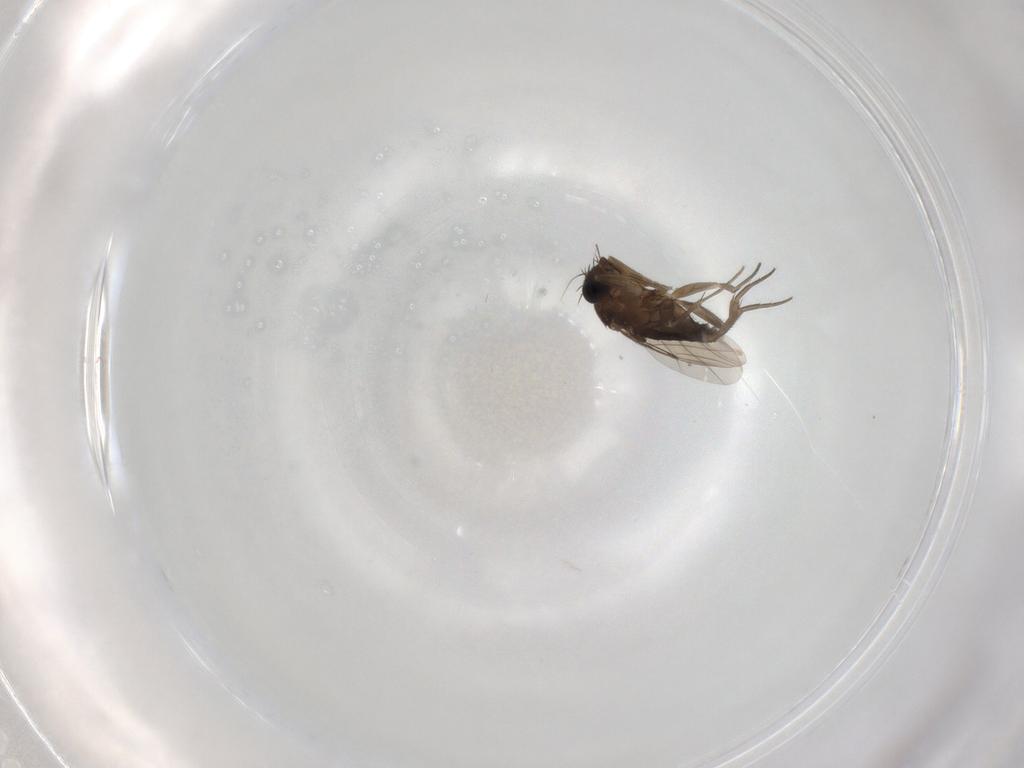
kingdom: Animalia
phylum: Arthropoda
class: Insecta
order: Diptera
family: Phoridae
